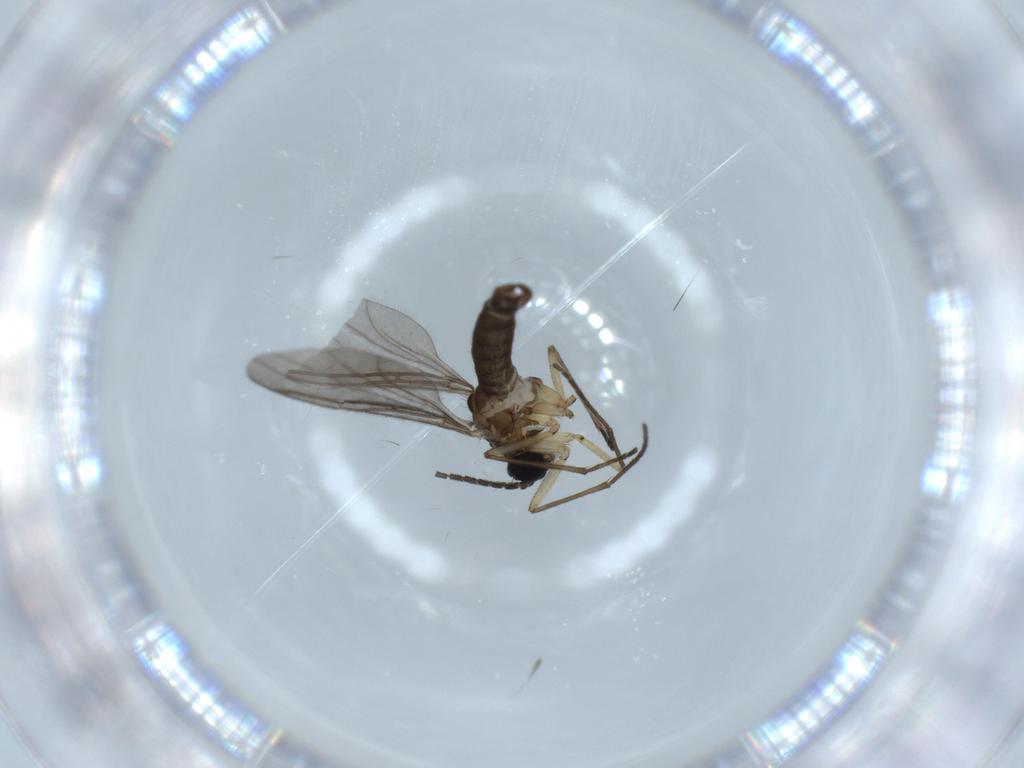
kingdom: Animalia
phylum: Arthropoda
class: Insecta
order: Diptera
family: Sciaridae
